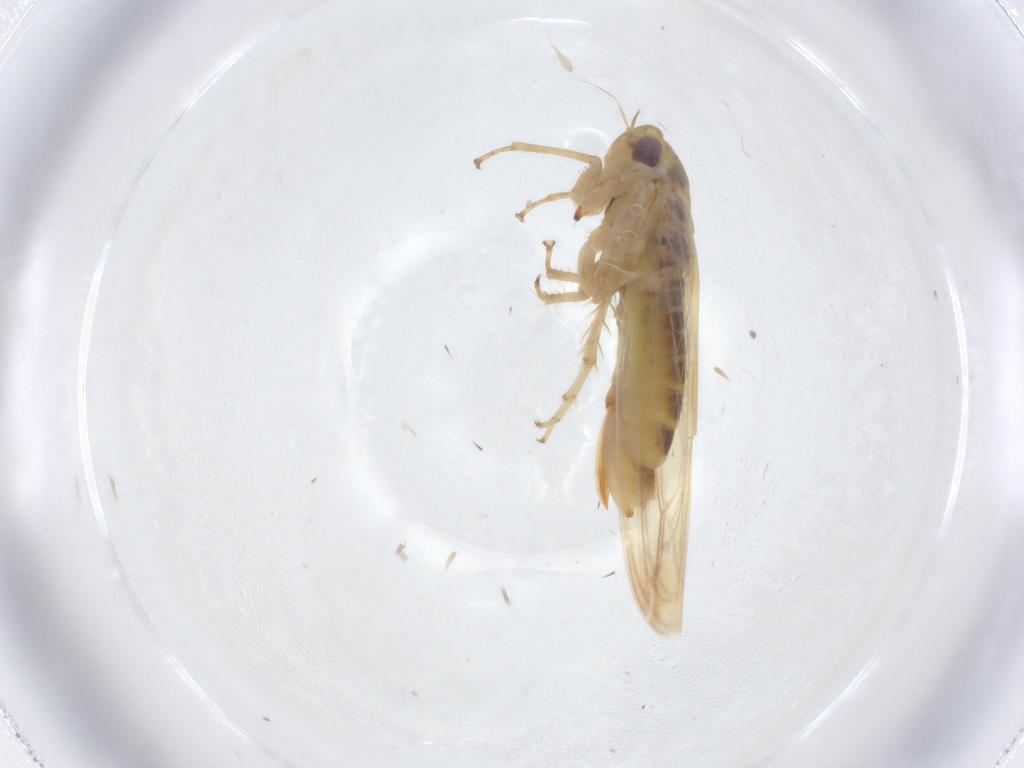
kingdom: Animalia
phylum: Arthropoda
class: Insecta
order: Hemiptera
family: Cicadellidae
